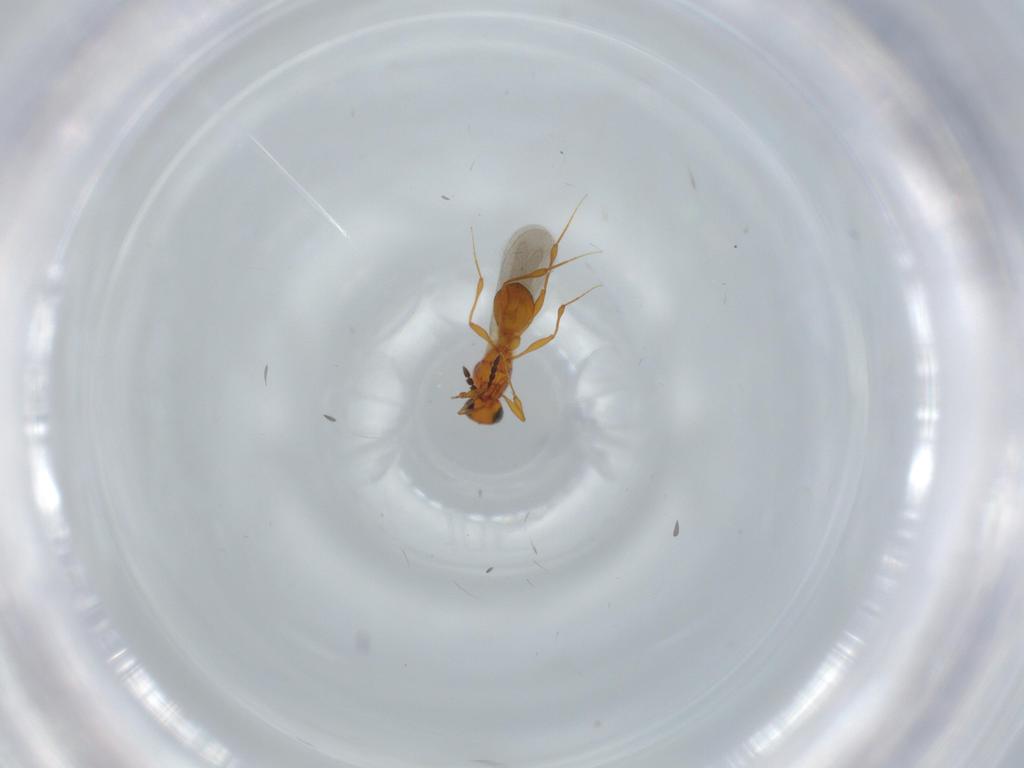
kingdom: Animalia
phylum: Arthropoda
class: Insecta
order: Hymenoptera
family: Platygastridae
